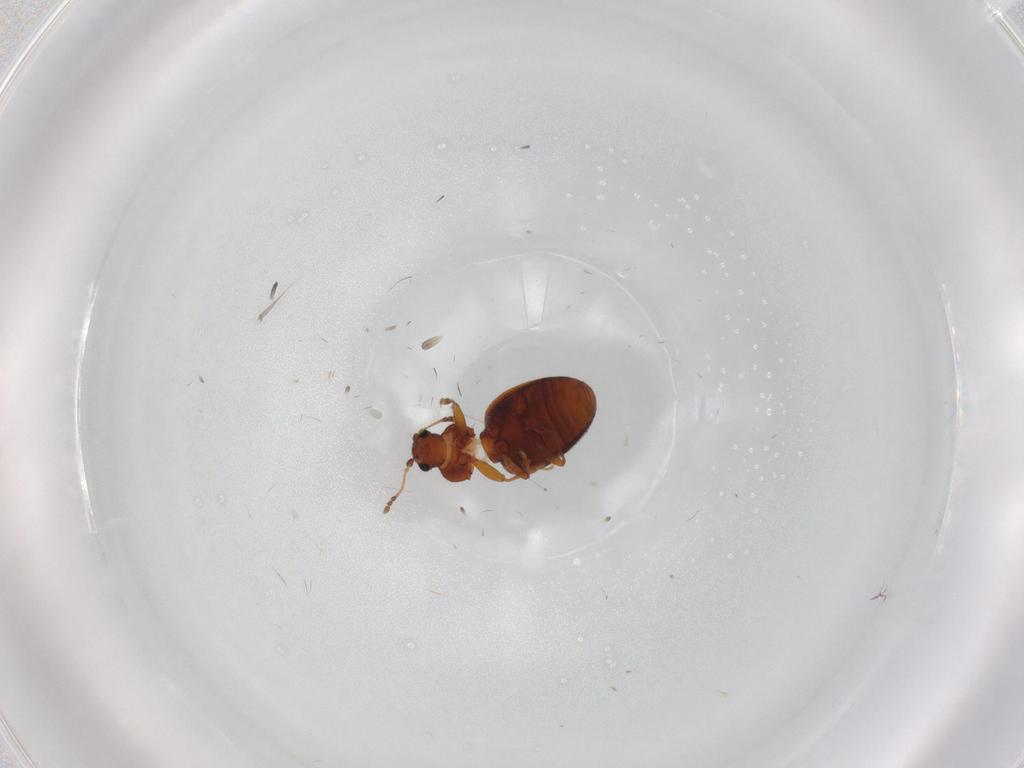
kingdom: Animalia
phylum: Arthropoda
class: Insecta
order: Coleoptera
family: Latridiidae
